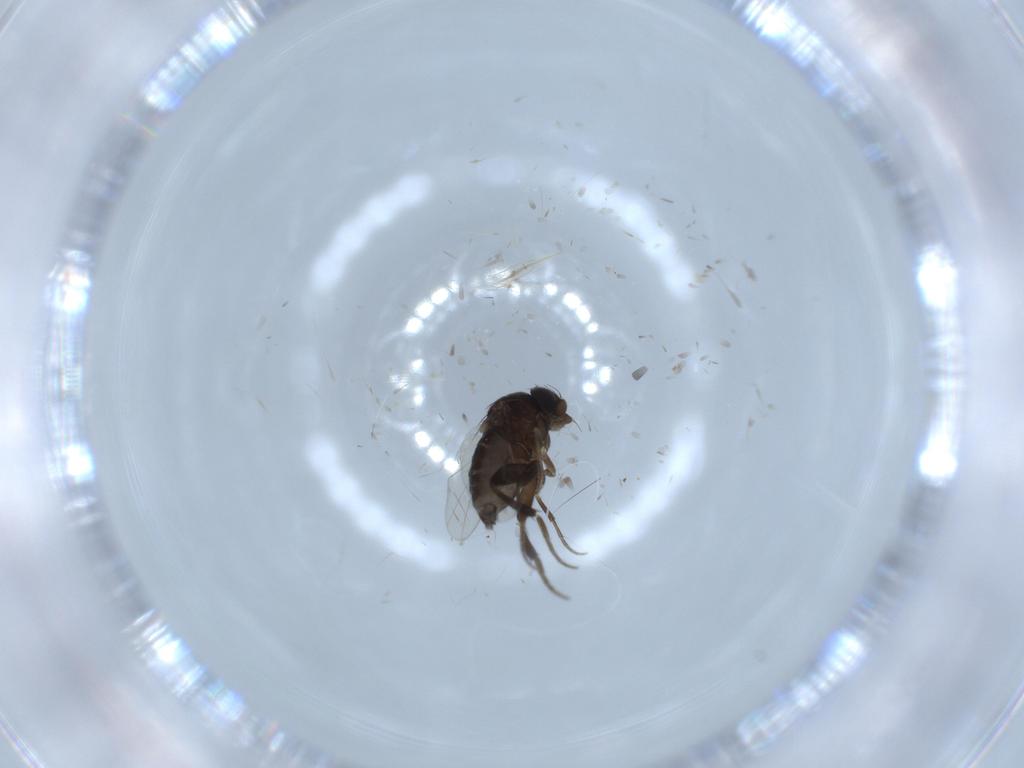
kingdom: Animalia
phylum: Arthropoda
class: Insecta
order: Diptera
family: Phoridae
